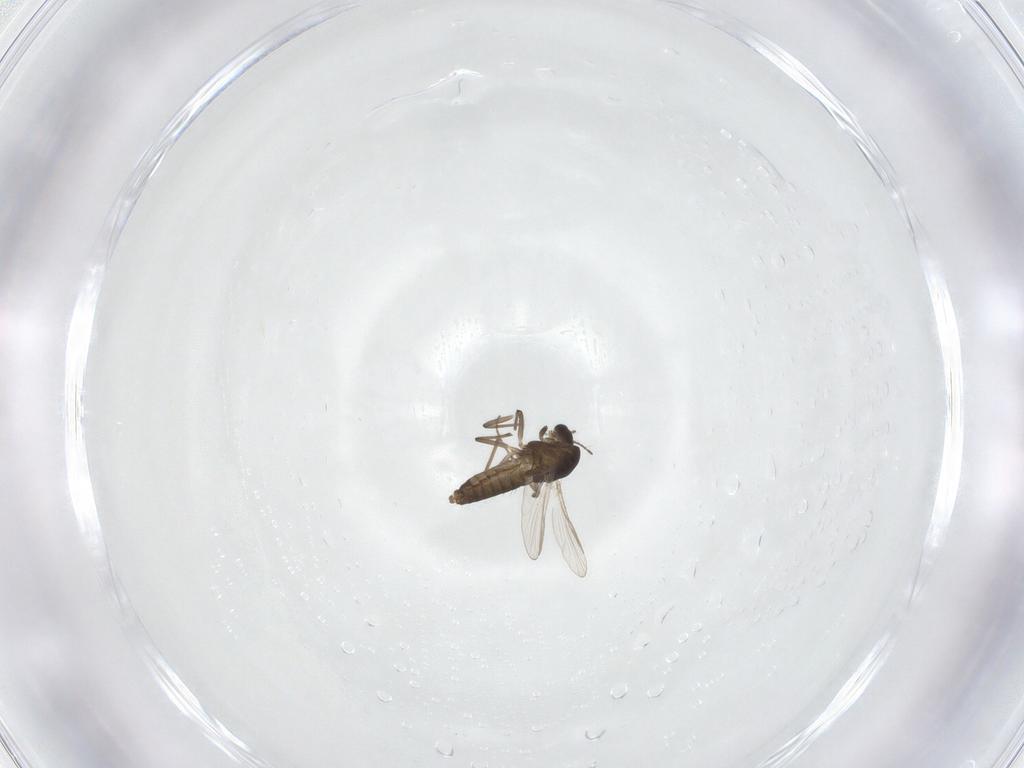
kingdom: Animalia
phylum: Arthropoda
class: Insecta
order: Diptera
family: Chironomidae
